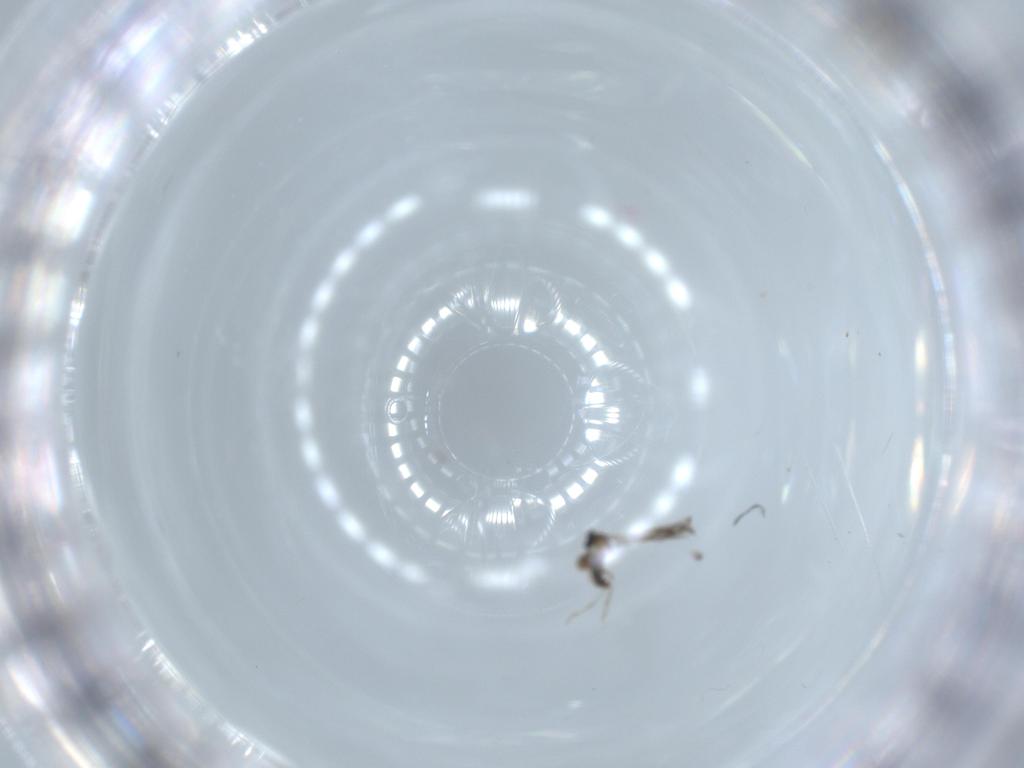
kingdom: Animalia
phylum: Arthropoda
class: Insecta
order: Diptera
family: Cecidomyiidae
